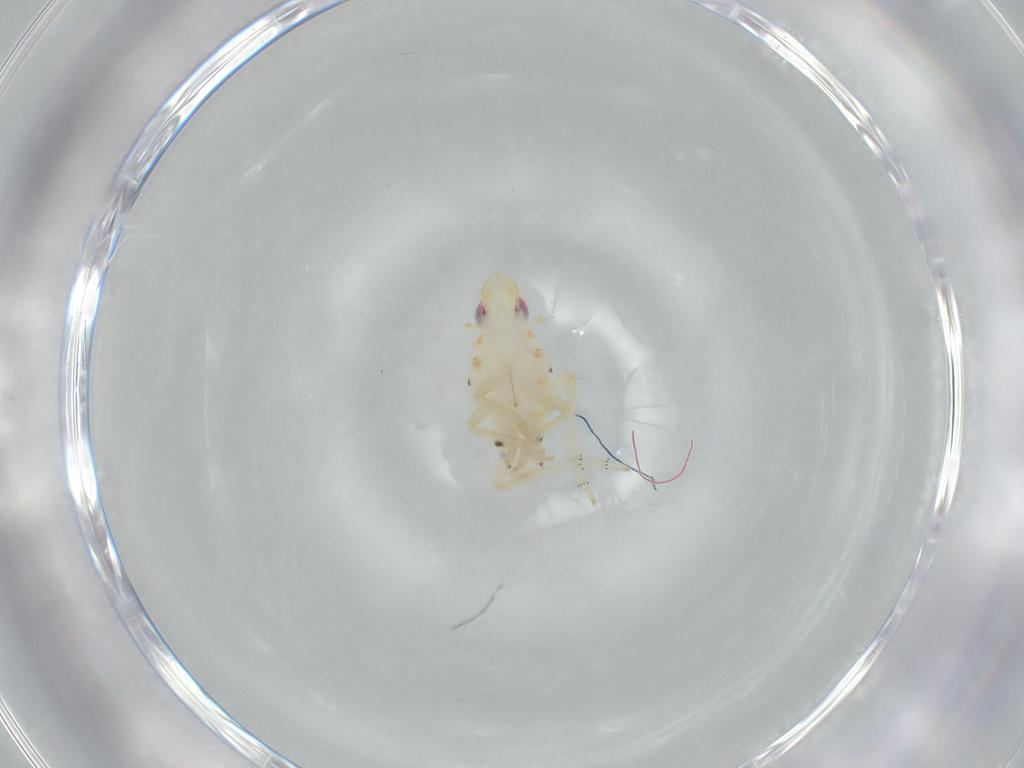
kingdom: Animalia
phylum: Arthropoda
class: Insecta
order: Hemiptera
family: Tropiduchidae
